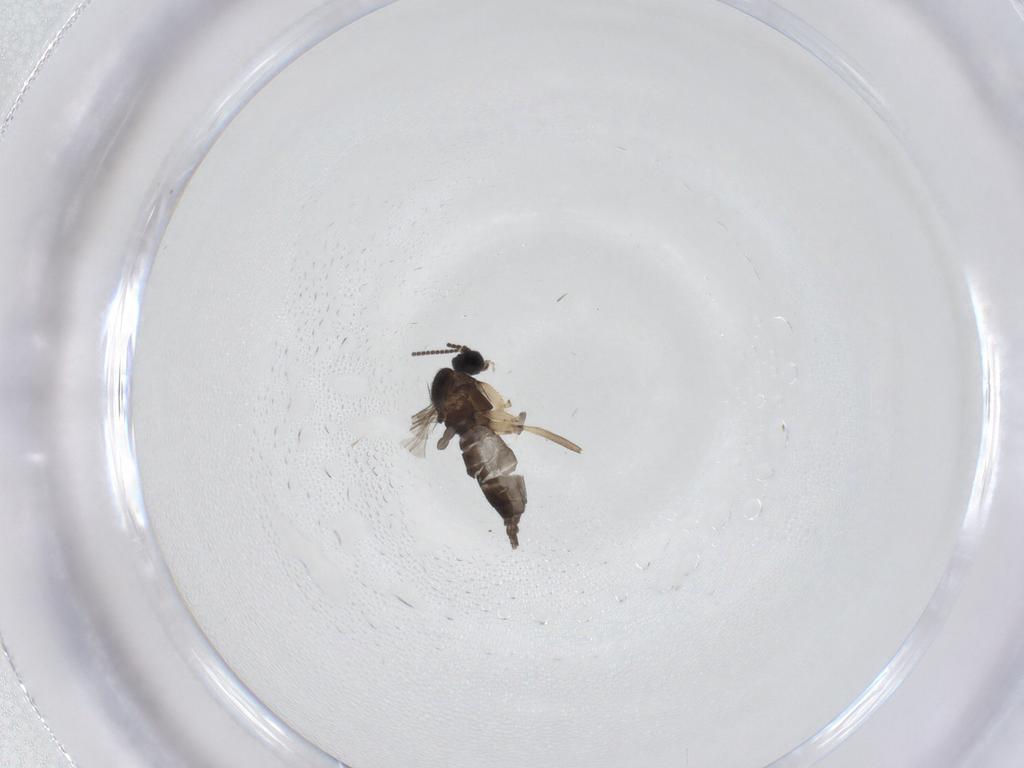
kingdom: Animalia
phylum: Arthropoda
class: Insecta
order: Diptera
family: Sciaridae
